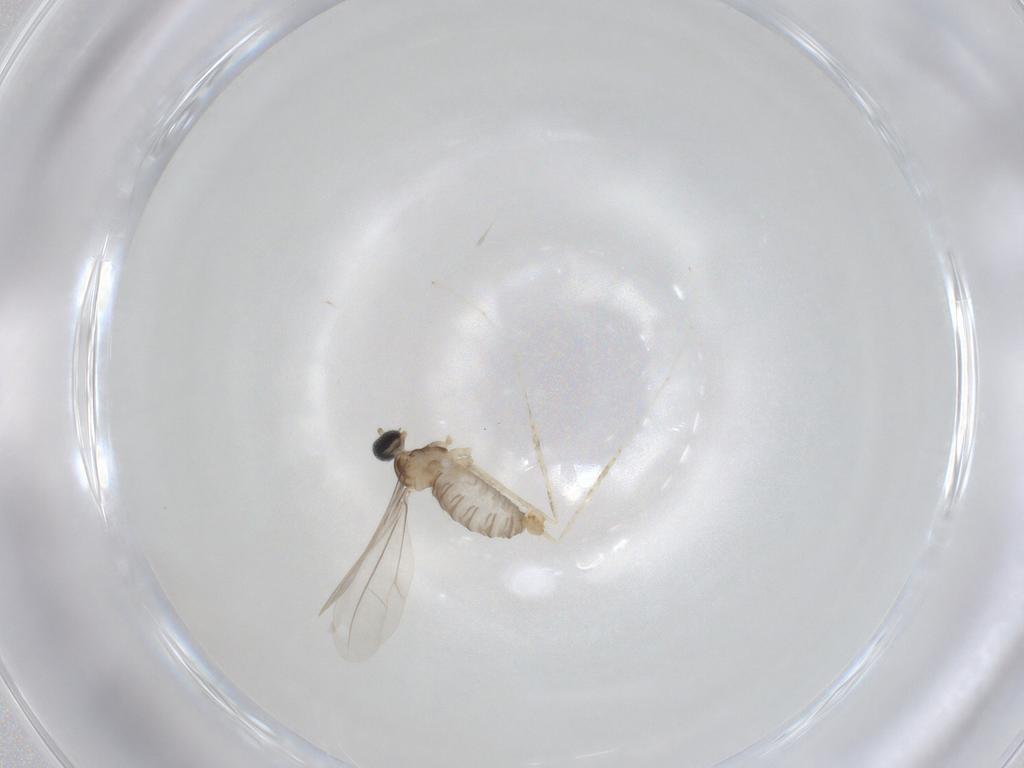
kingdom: Animalia
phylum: Arthropoda
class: Insecta
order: Diptera
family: Cecidomyiidae
